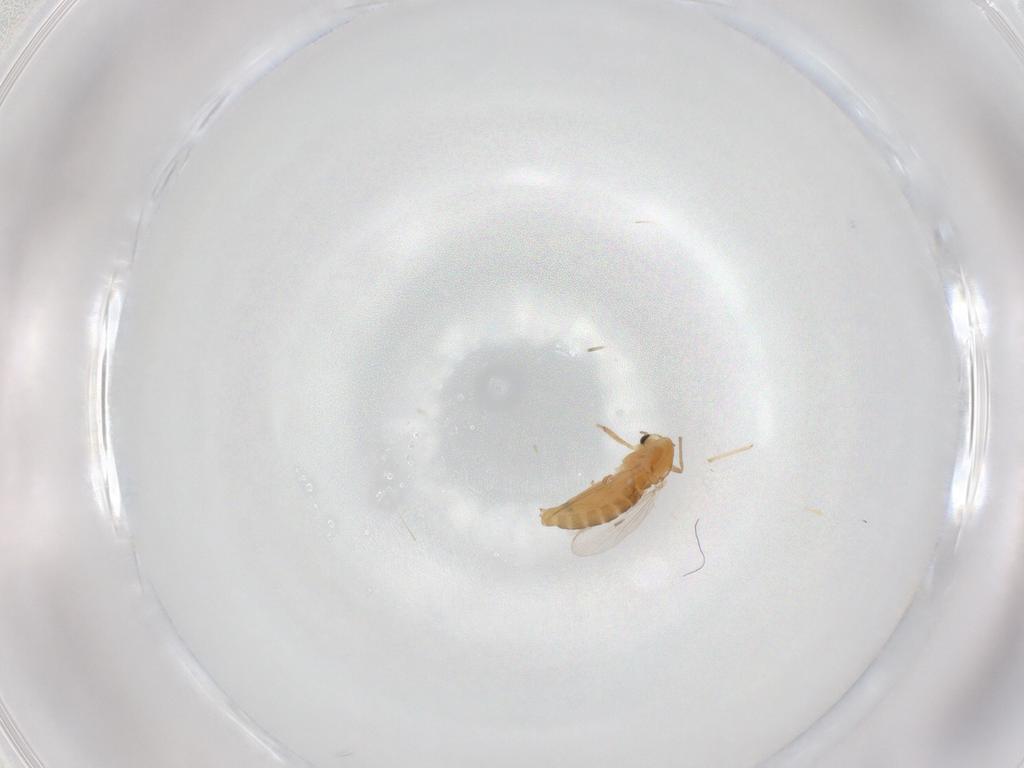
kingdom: Animalia
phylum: Arthropoda
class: Insecta
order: Diptera
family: Chironomidae
